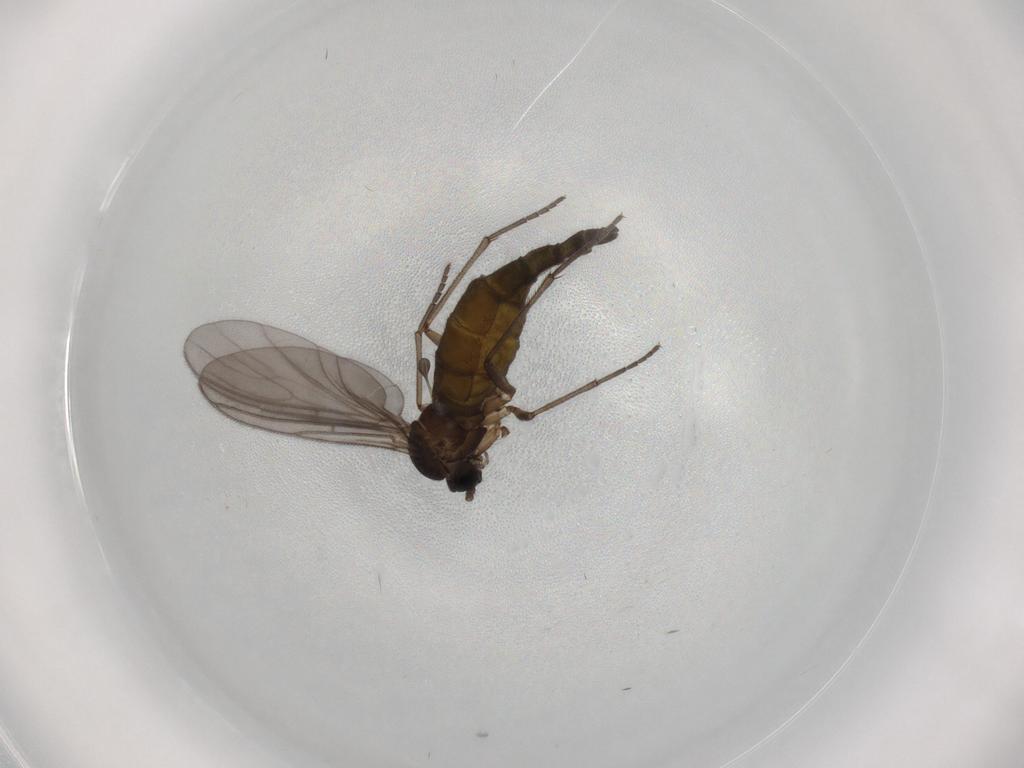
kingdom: Animalia
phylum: Arthropoda
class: Insecta
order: Diptera
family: Sciaridae
